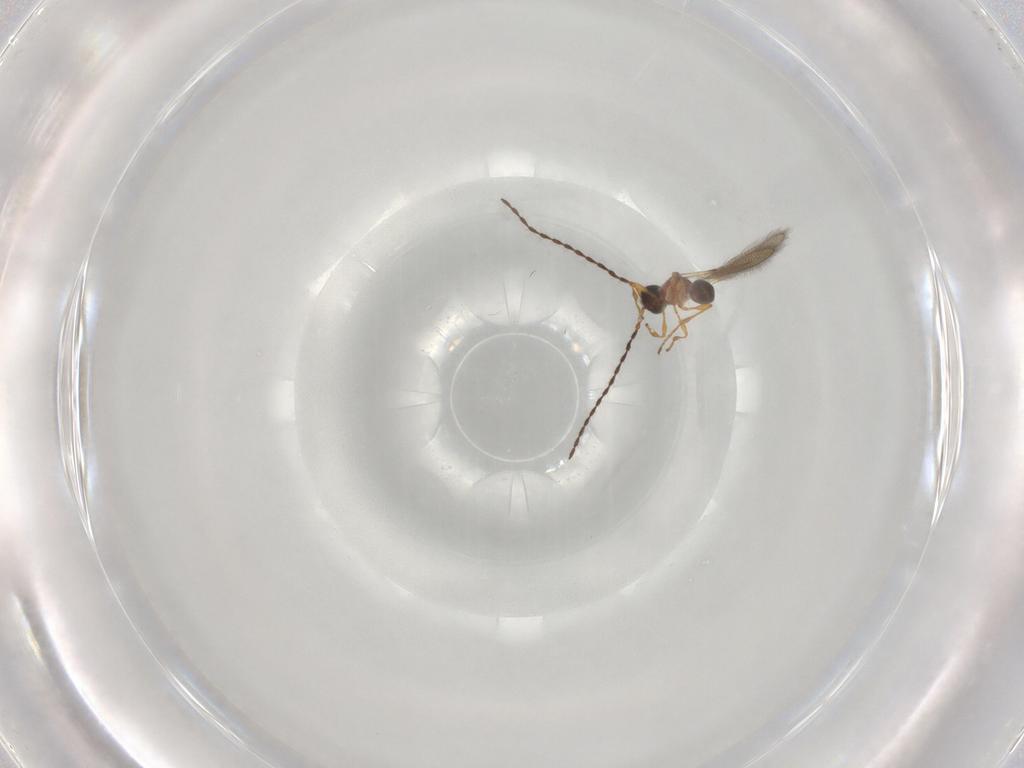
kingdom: Animalia
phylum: Arthropoda
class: Insecta
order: Hymenoptera
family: Diapriidae
